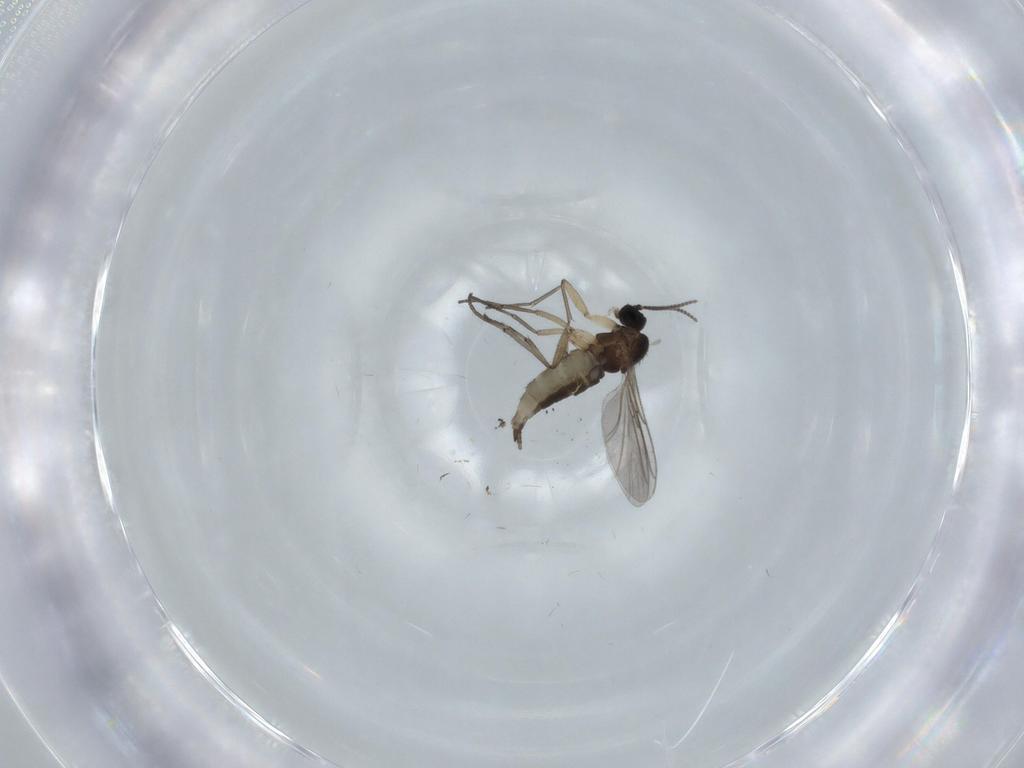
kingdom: Animalia
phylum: Arthropoda
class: Insecta
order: Diptera
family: Sciaridae
